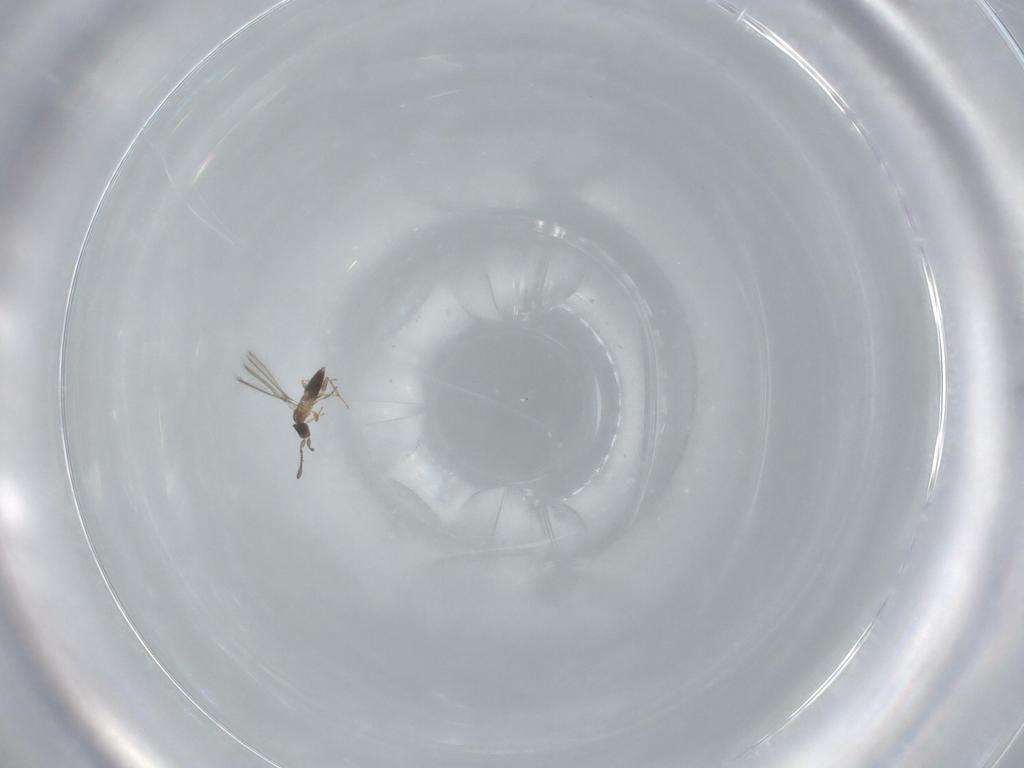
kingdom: Animalia
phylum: Arthropoda
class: Insecta
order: Hymenoptera
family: Mymaridae
